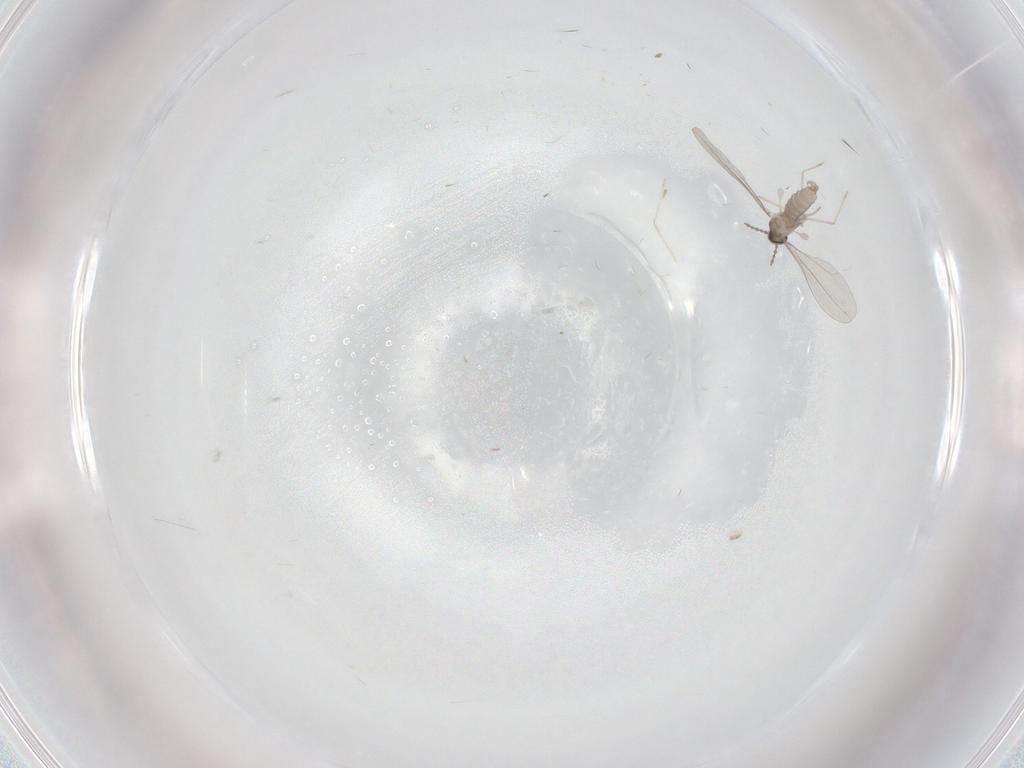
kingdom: Animalia
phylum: Arthropoda
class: Insecta
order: Diptera
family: Cecidomyiidae
